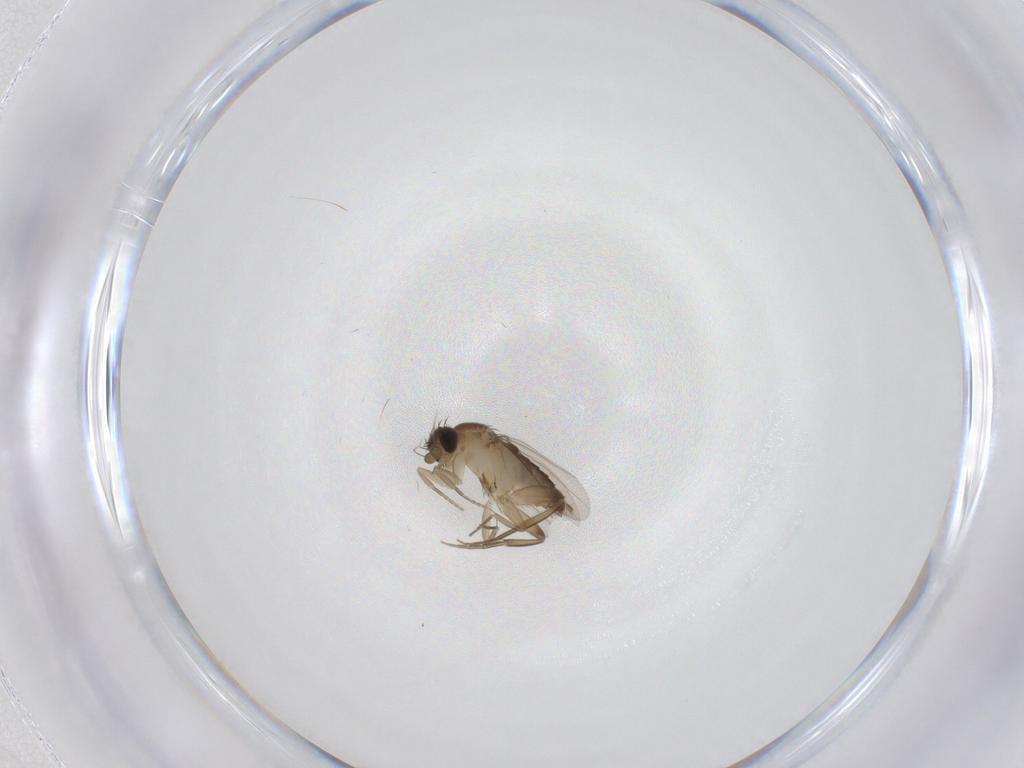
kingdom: Animalia
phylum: Arthropoda
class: Insecta
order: Diptera
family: Phoridae
